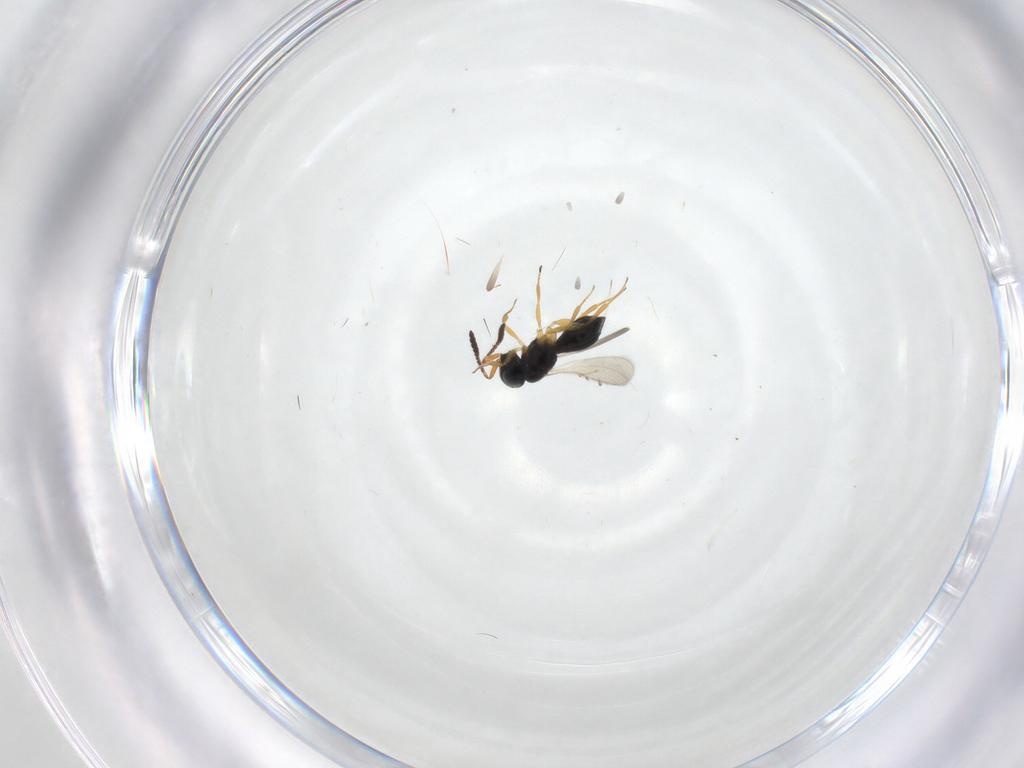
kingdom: Animalia
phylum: Arthropoda
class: Insecta
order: Hymenoptera
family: Scelionidae
